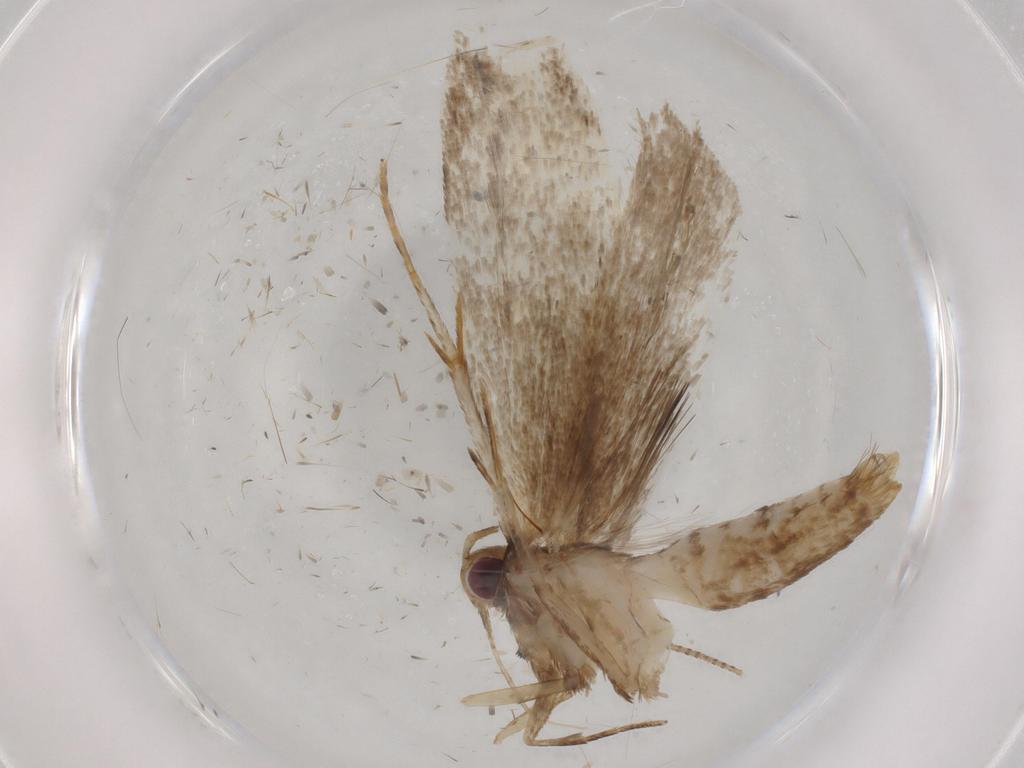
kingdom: Animalia
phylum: Arthropoda
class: Insecta
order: Lepidoptera
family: Gelechiidae
